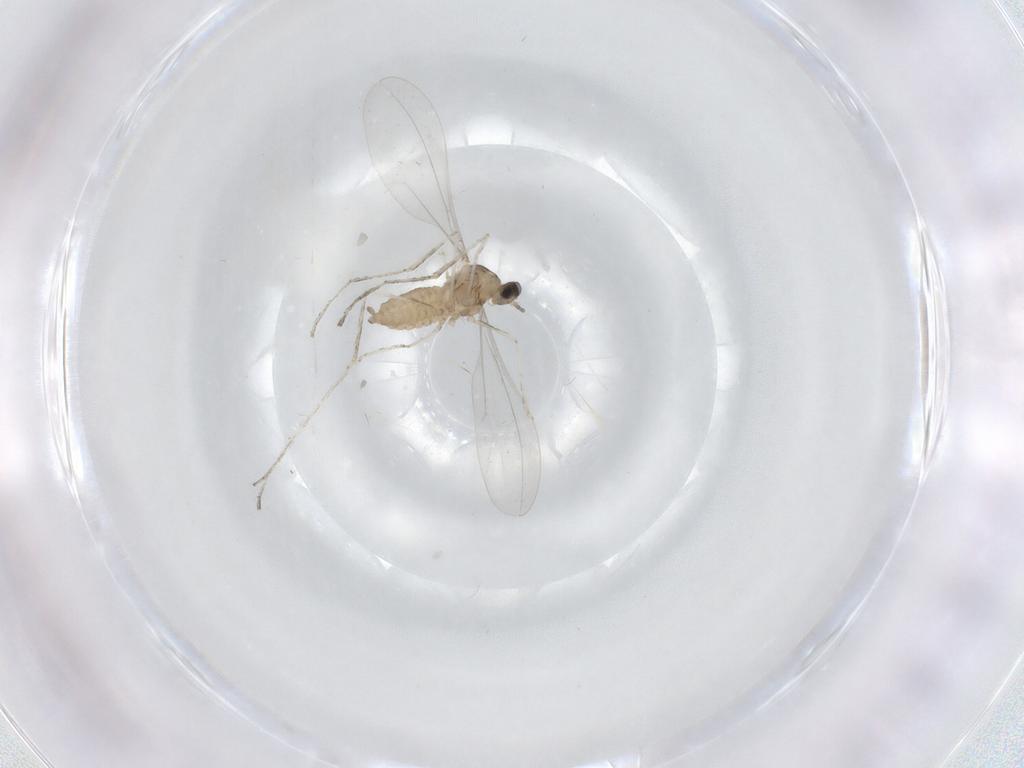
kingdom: Animalia
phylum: Arthropoda
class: Insecta
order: Diptera
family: Cecidomyiidae
